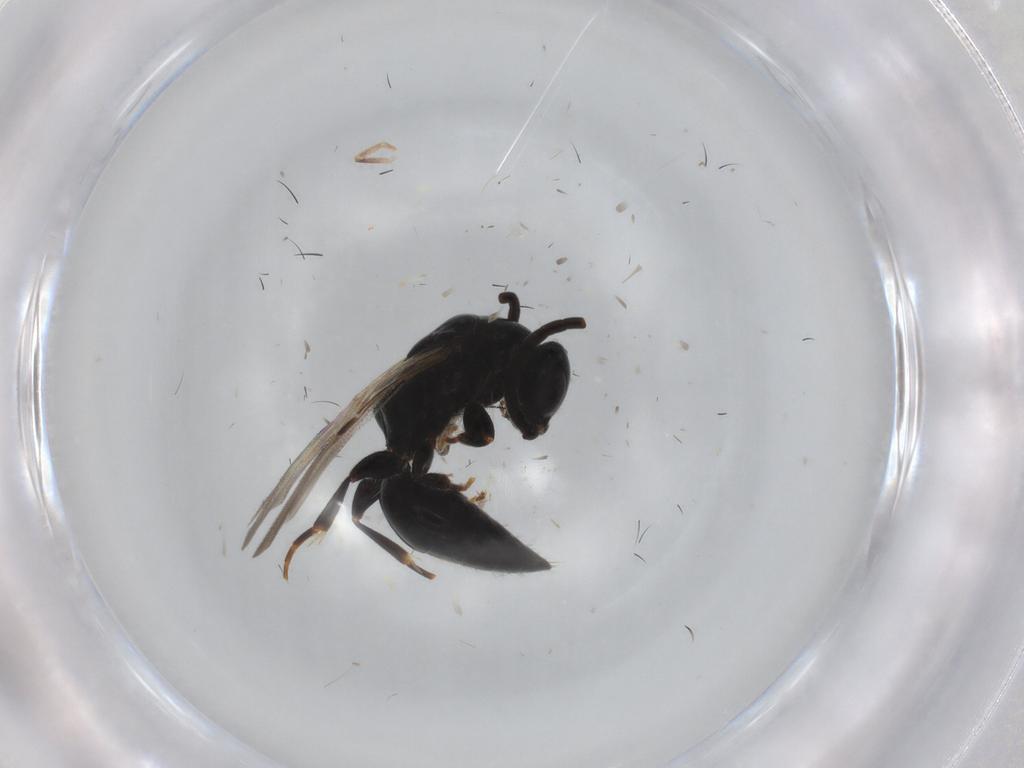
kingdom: Animalia
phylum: Arthropoda
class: Insecta
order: Hymenoptera
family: Bethylidae
